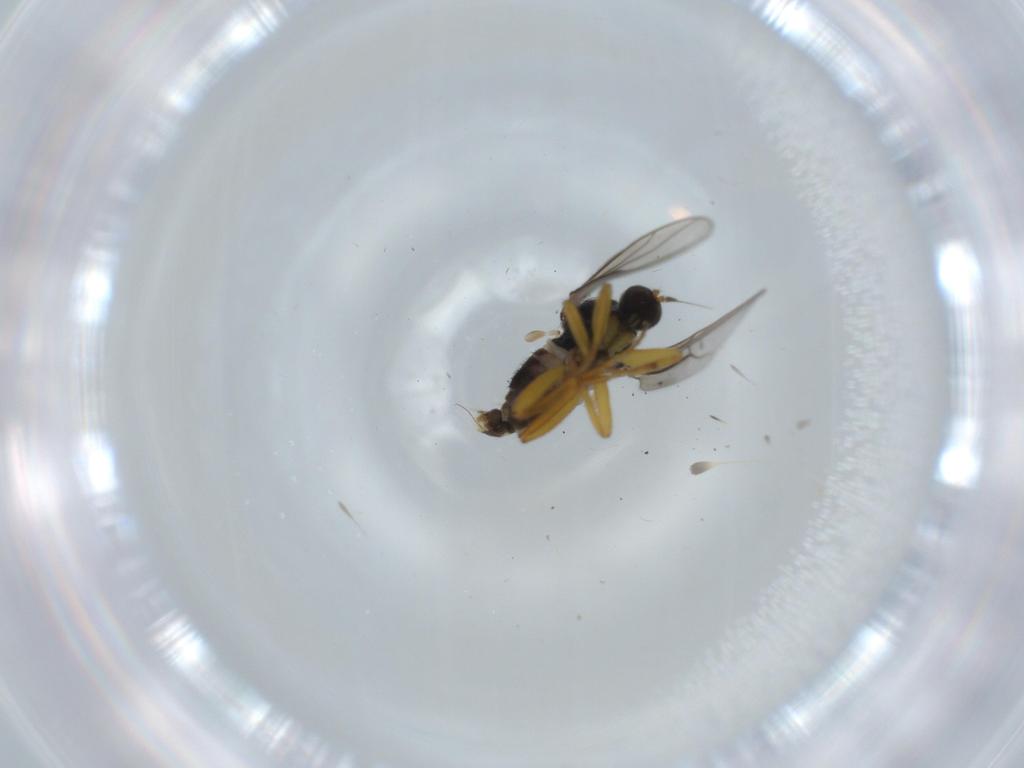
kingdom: Animalia
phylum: Arthropoda
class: Insecta
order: Diptera
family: Hybotidae
